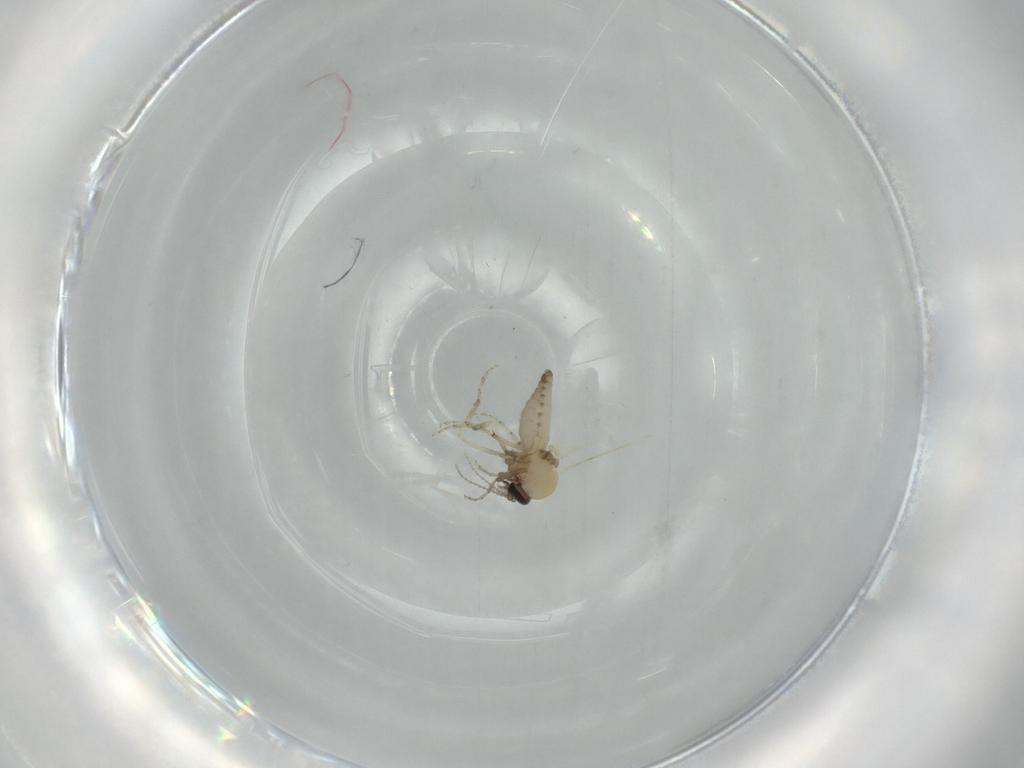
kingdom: Animalia
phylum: Arthropoda
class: Insecta
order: Diptera
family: Ceratopogonidae
